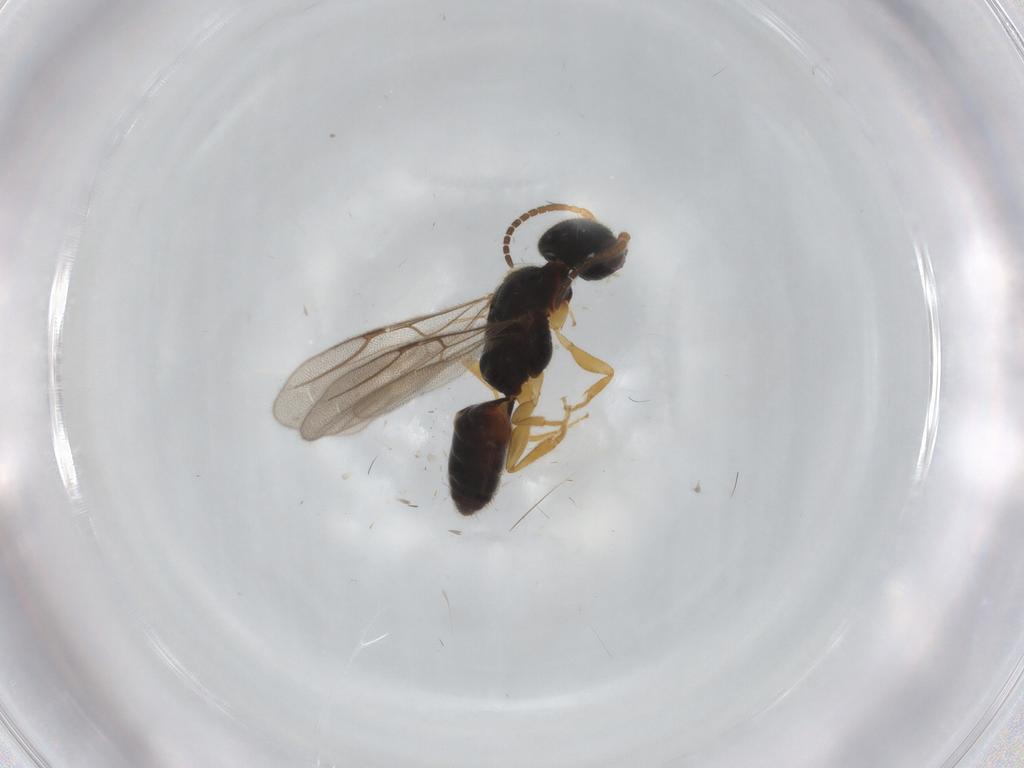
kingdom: Animalia
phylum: Arthropoda
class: Insecta
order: Hymenoptera
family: Bethylidae
